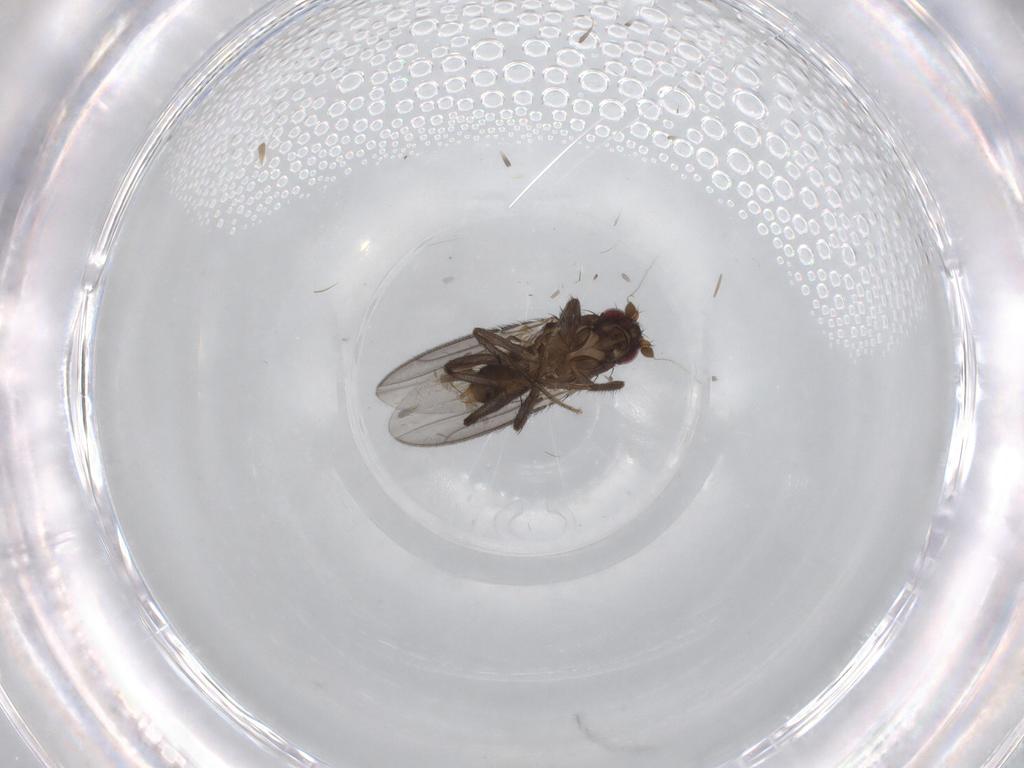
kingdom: Animalia
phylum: Arthropoda
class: Insecta
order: Diptera
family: Sphaeroceridae
